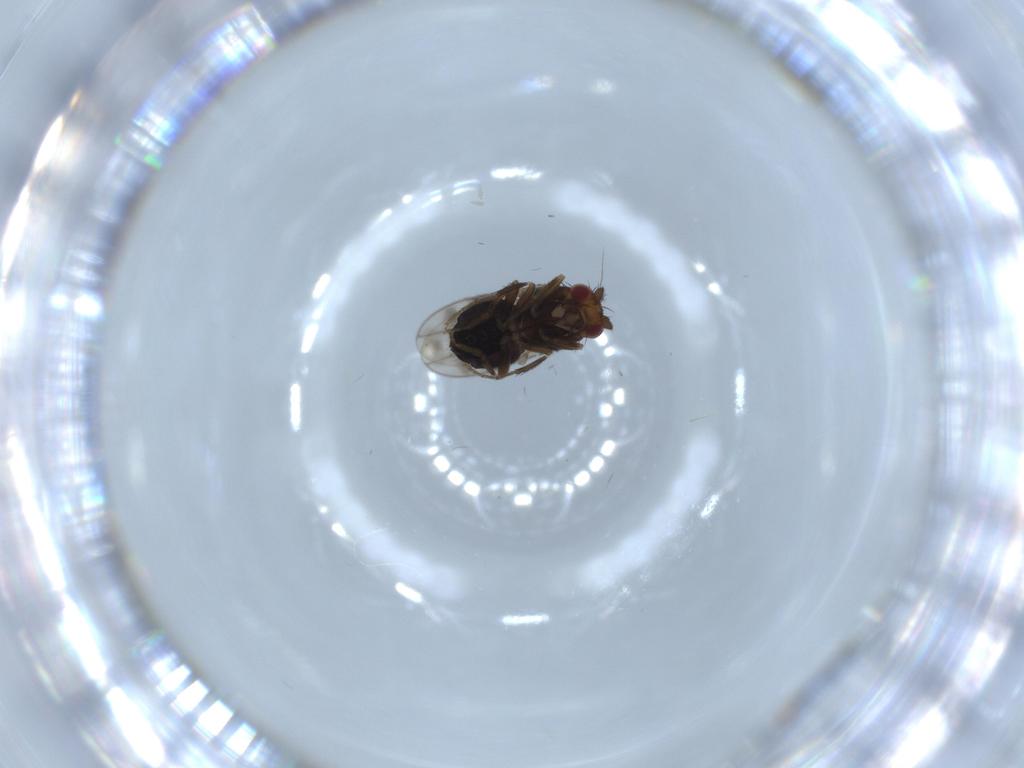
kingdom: Animalia
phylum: Arthropoda
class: Insecta
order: Diptera
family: Sphaeroceridae
